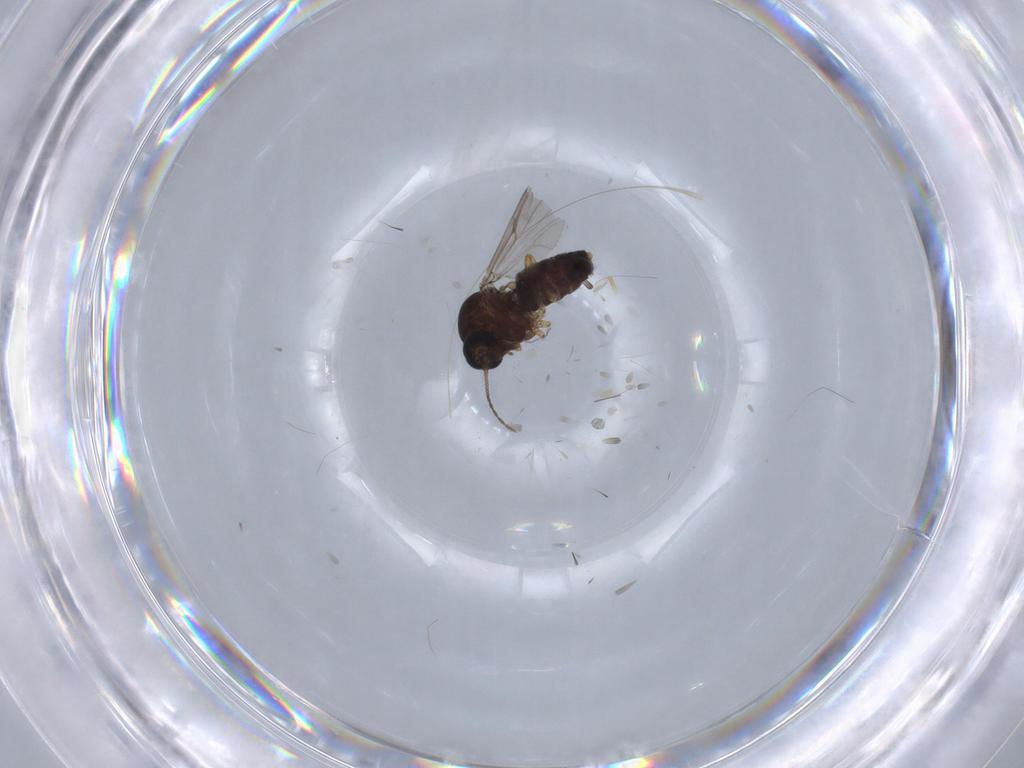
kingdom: Animalia
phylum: Arthropoda
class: Insecta
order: Diptera
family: Ceratopogonidae
